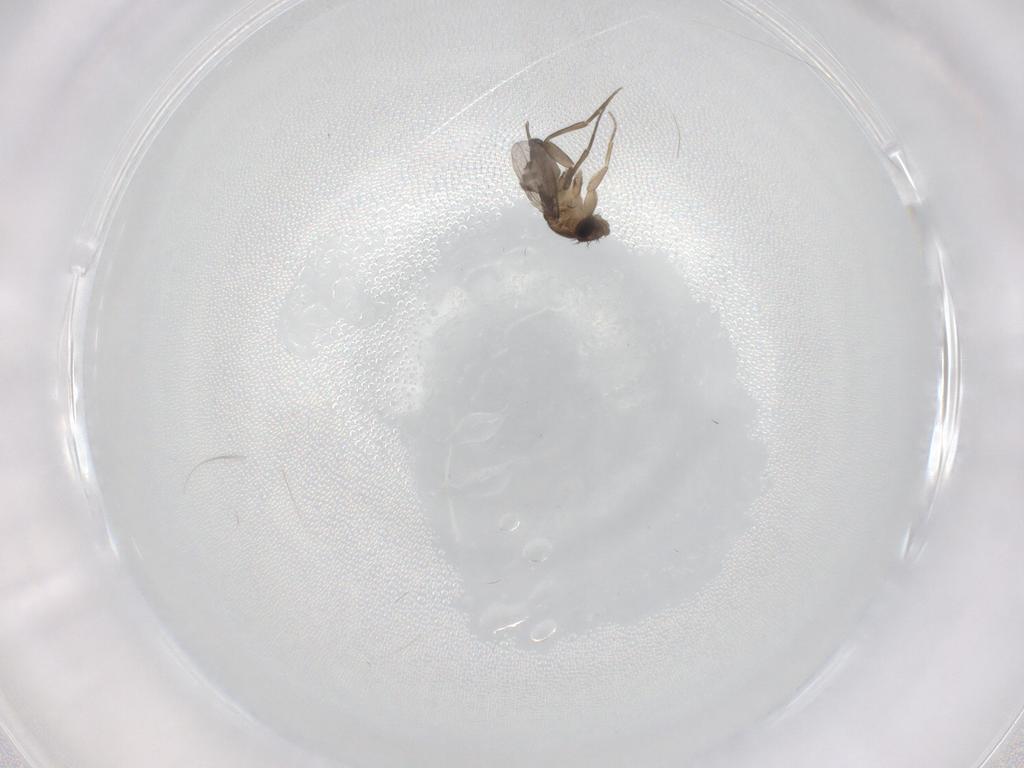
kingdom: Animalia
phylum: Arthropoda
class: Insecta
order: Diptera
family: Phoridae
